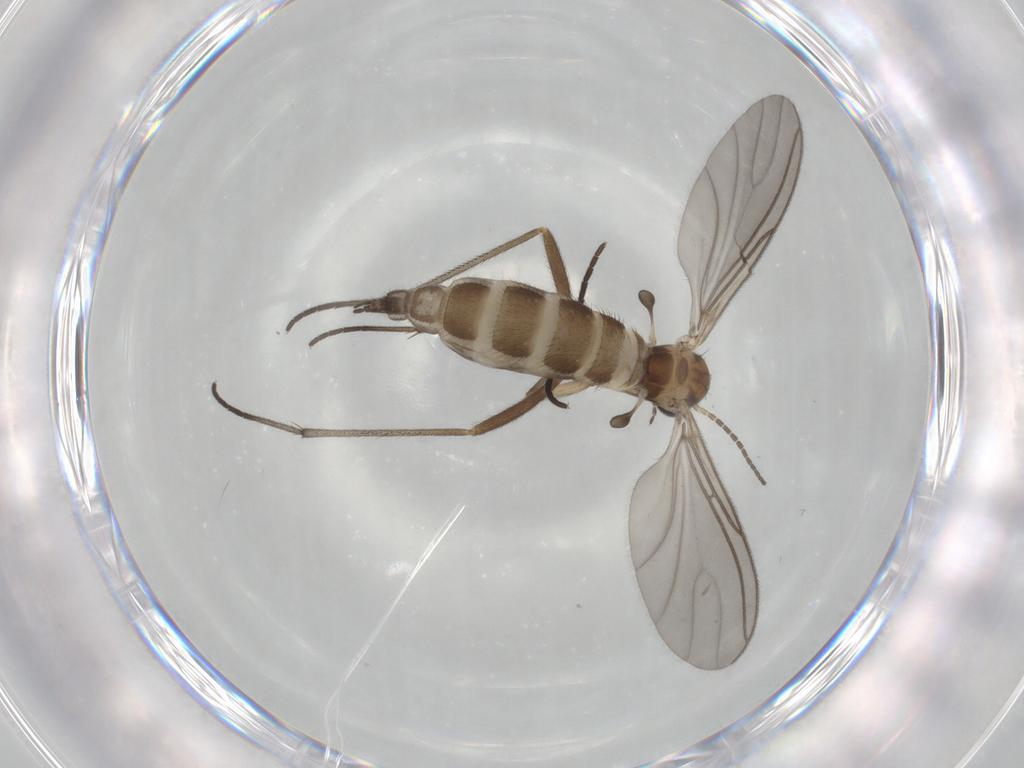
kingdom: Animalia
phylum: Arthropoda
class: Insecta
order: Diptera
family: Sciaridae
